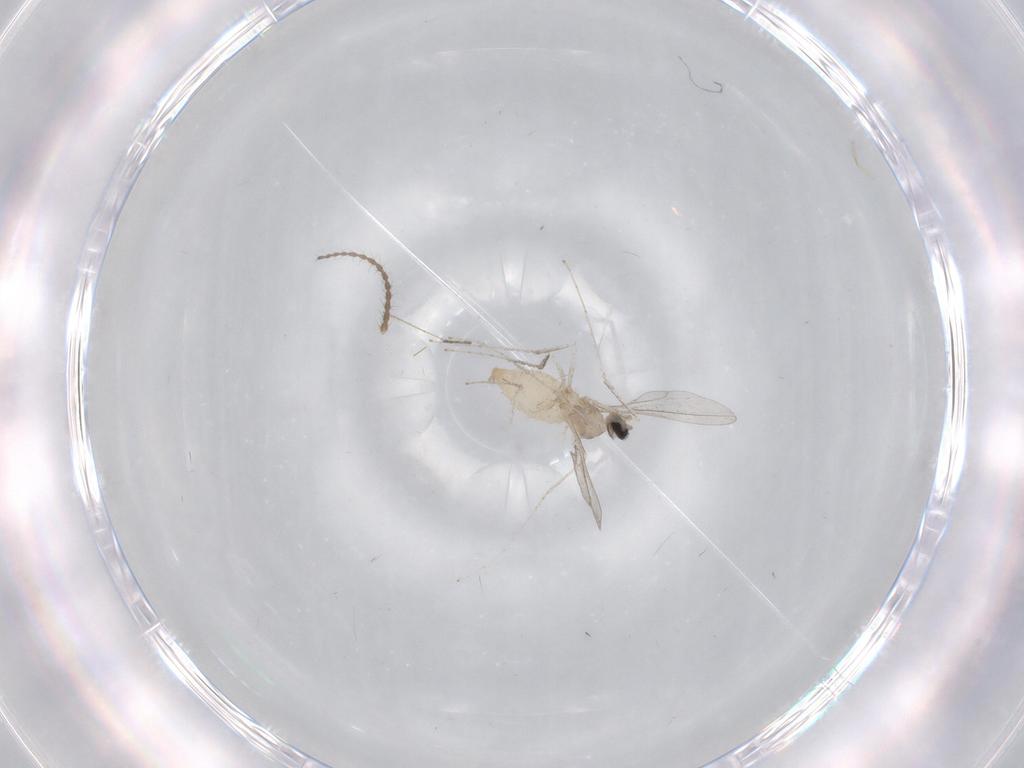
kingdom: Animalia
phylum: Arthropoda
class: Insecta
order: Diptera
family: Cecidomyiidae
